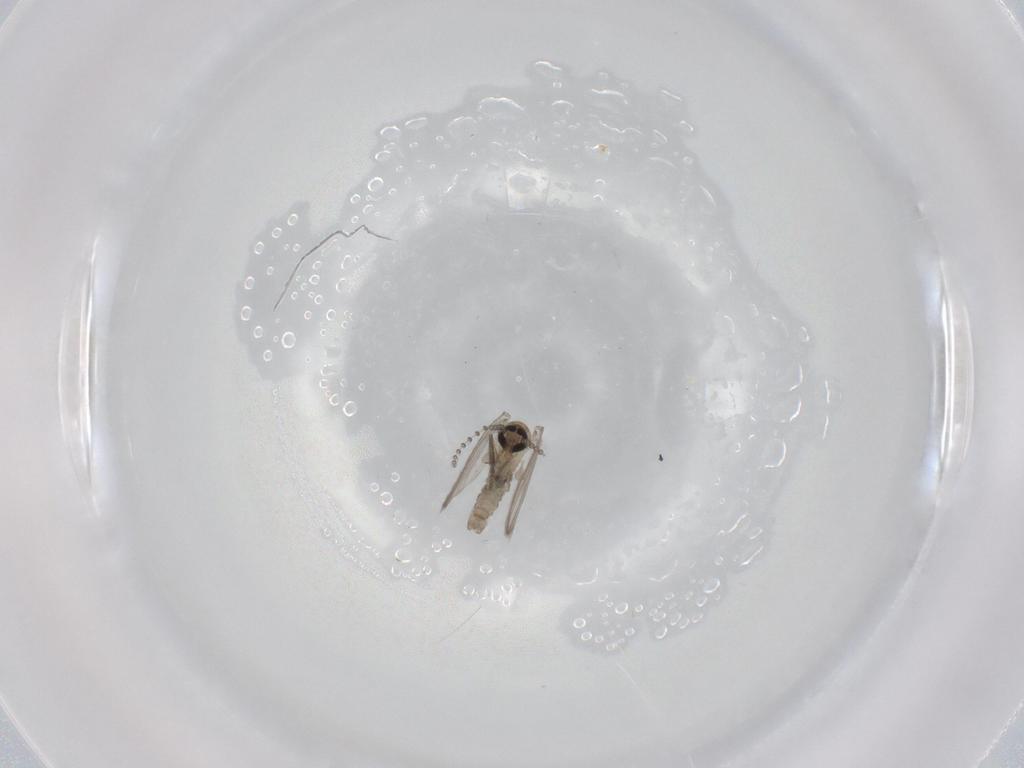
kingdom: Animalia
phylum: Arthropoda
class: Insecta
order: Diptera
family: Psychodidae
